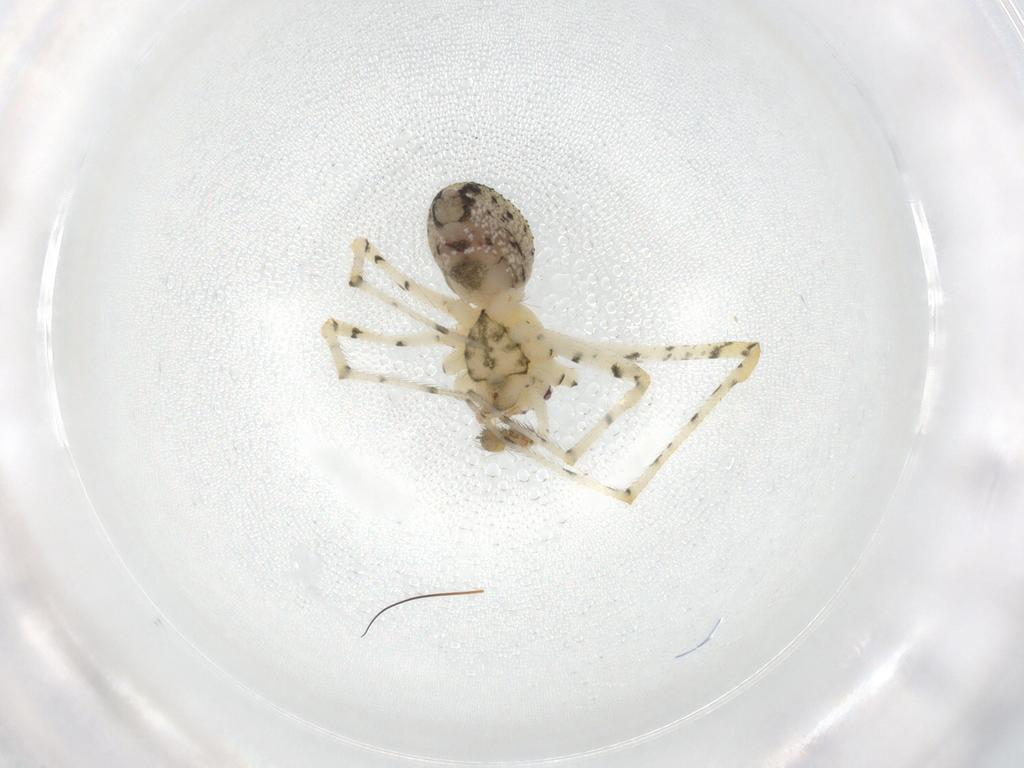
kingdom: Animalia
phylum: Arthropoda
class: Arachnida
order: Araneae
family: Theridiidae
